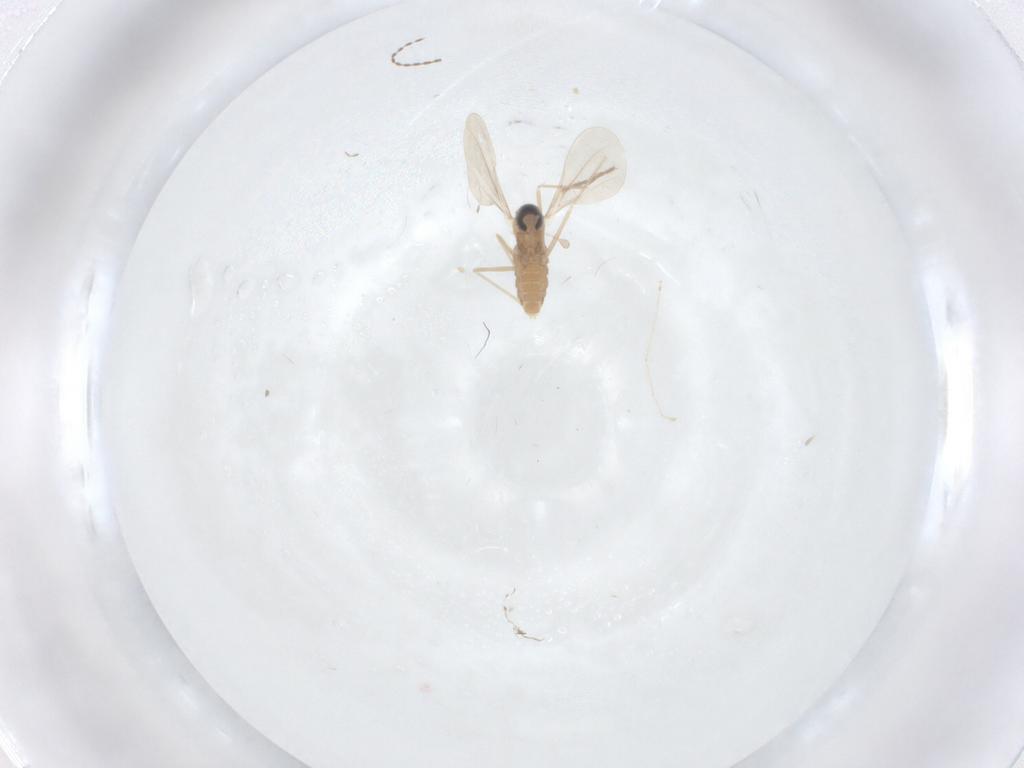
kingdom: Animalia
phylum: Arthropoda
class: Insecta
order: Diptera
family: Cecidomyiidae
